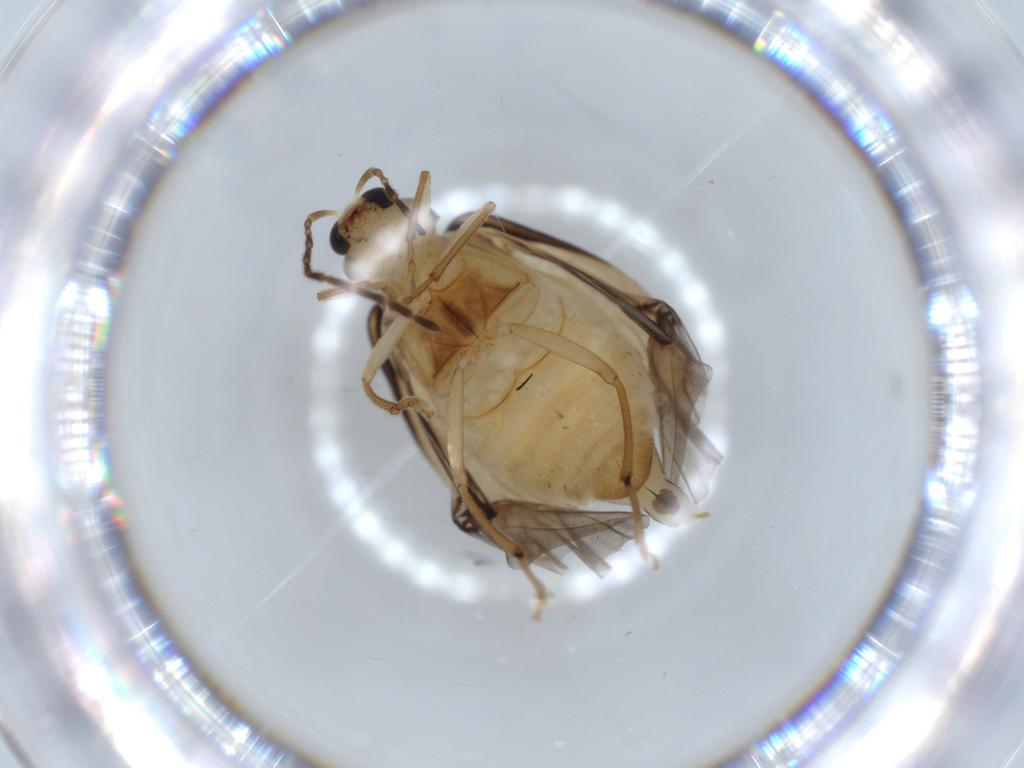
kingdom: Animalia
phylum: Arthropoda
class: Insecta
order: Coleoptera
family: Chrysomelidae
